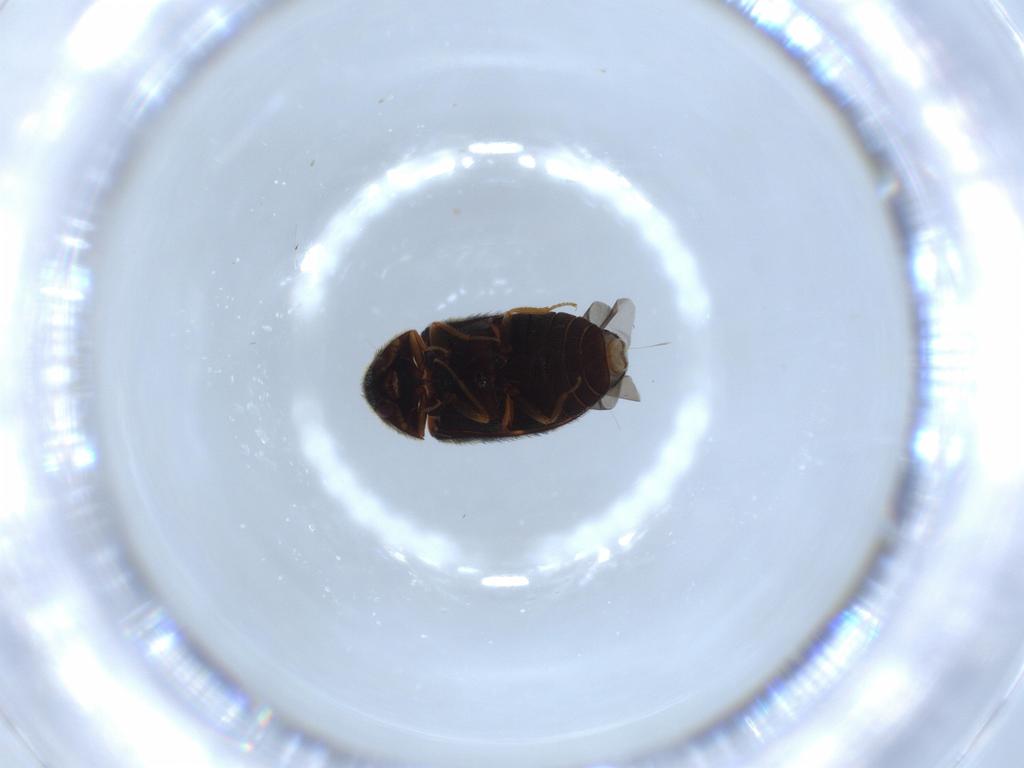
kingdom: Animalia
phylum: Arthropoda
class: Insecta
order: Coleoptera
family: Dermestidae
